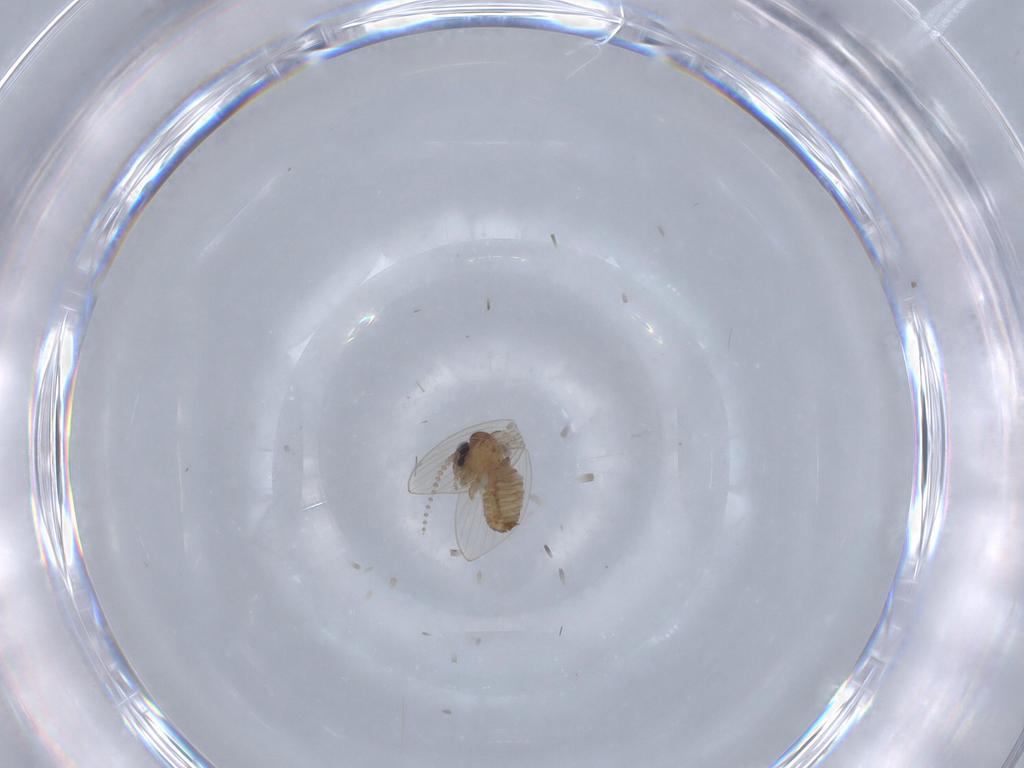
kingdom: Animalia
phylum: Arthropoda
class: Insecta
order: Diptera
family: Psychodidae
